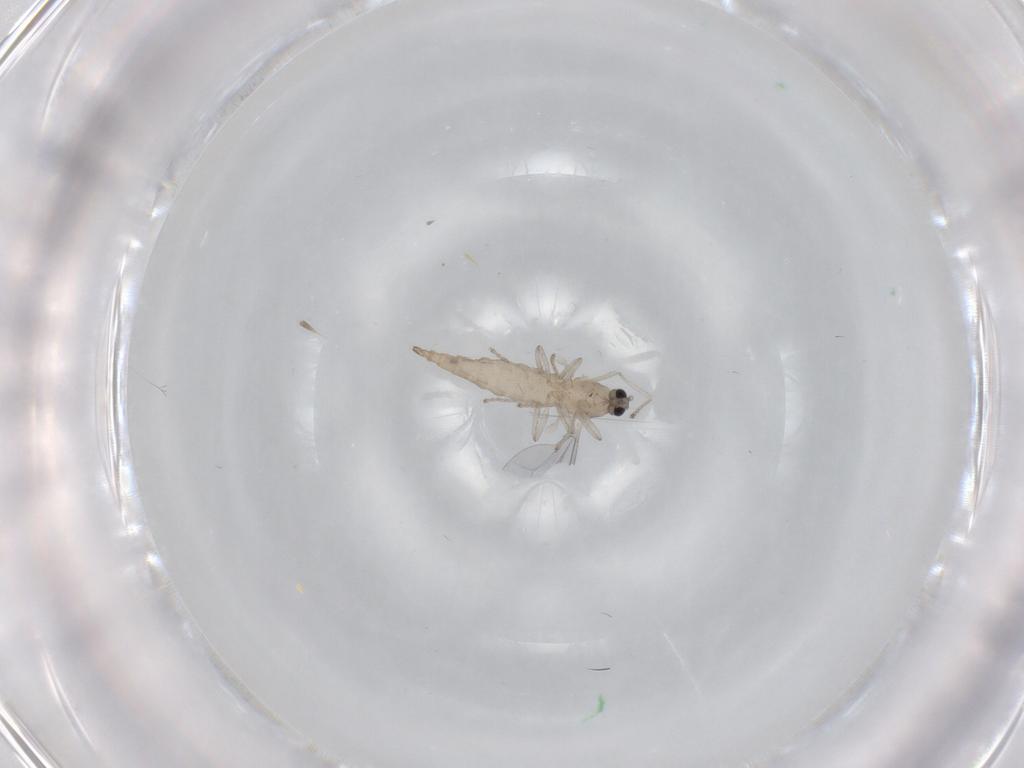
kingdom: Animalia
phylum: Arthropoda
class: Insecta
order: Diptera
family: Cecidomyiidae
